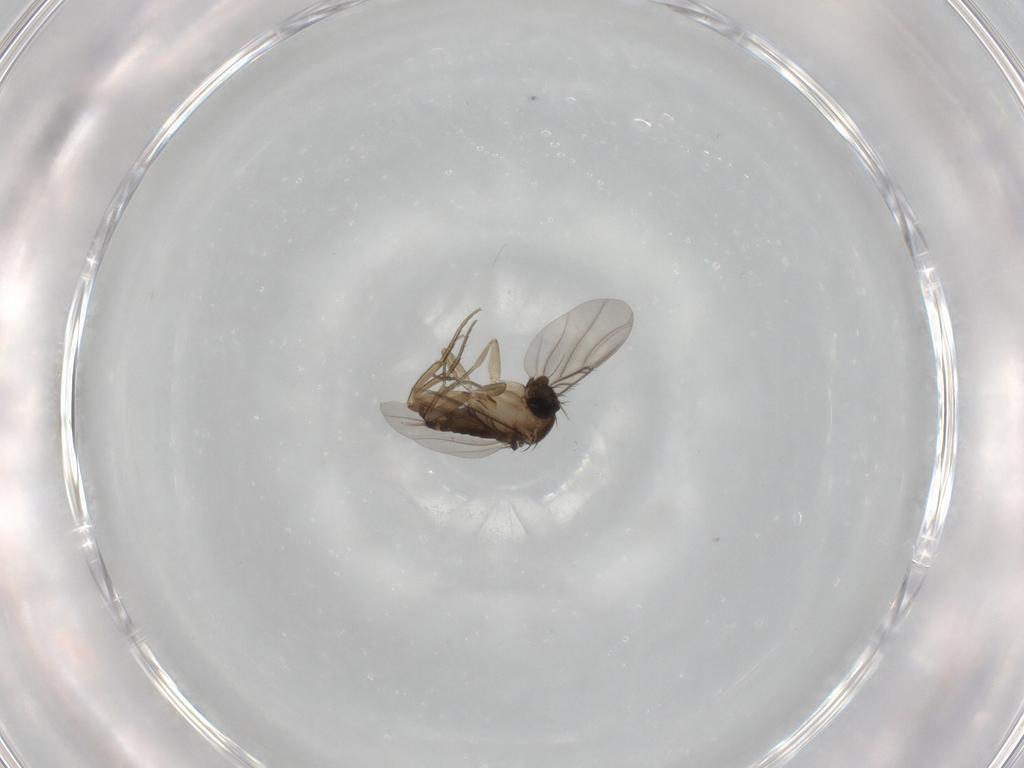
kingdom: Animalia
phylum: Arthropoda
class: Insecta
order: Diptera
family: Phoridae
